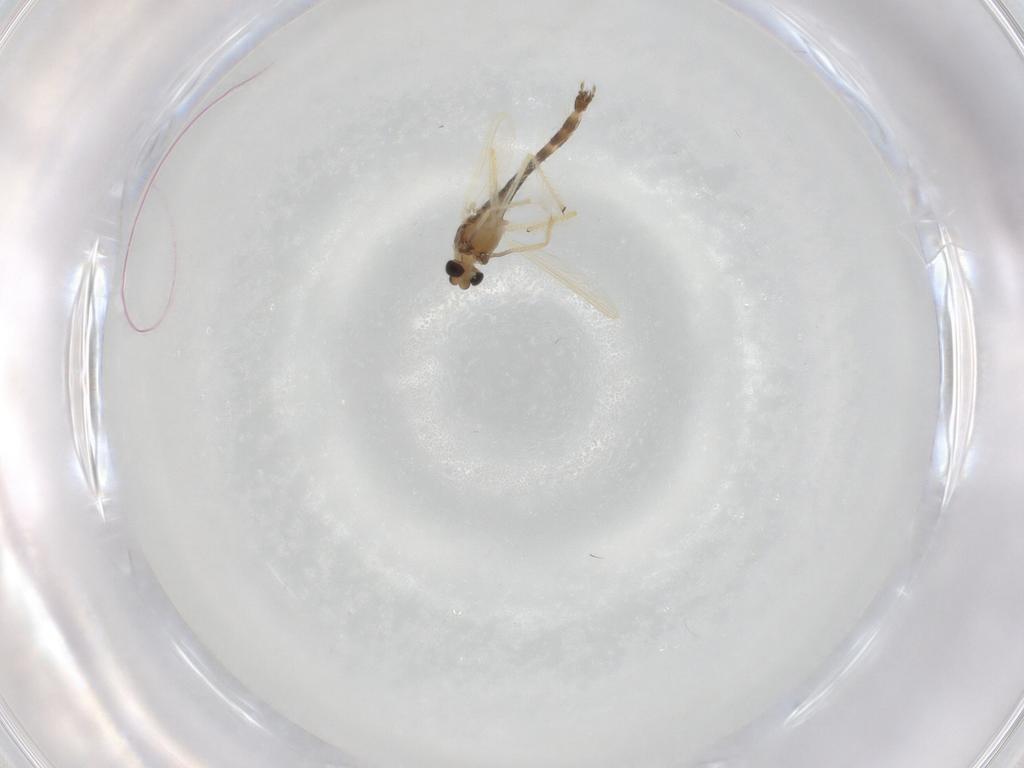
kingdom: Animalia
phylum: Arthropoda
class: Insecta
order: Diptera
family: Chironomidae
